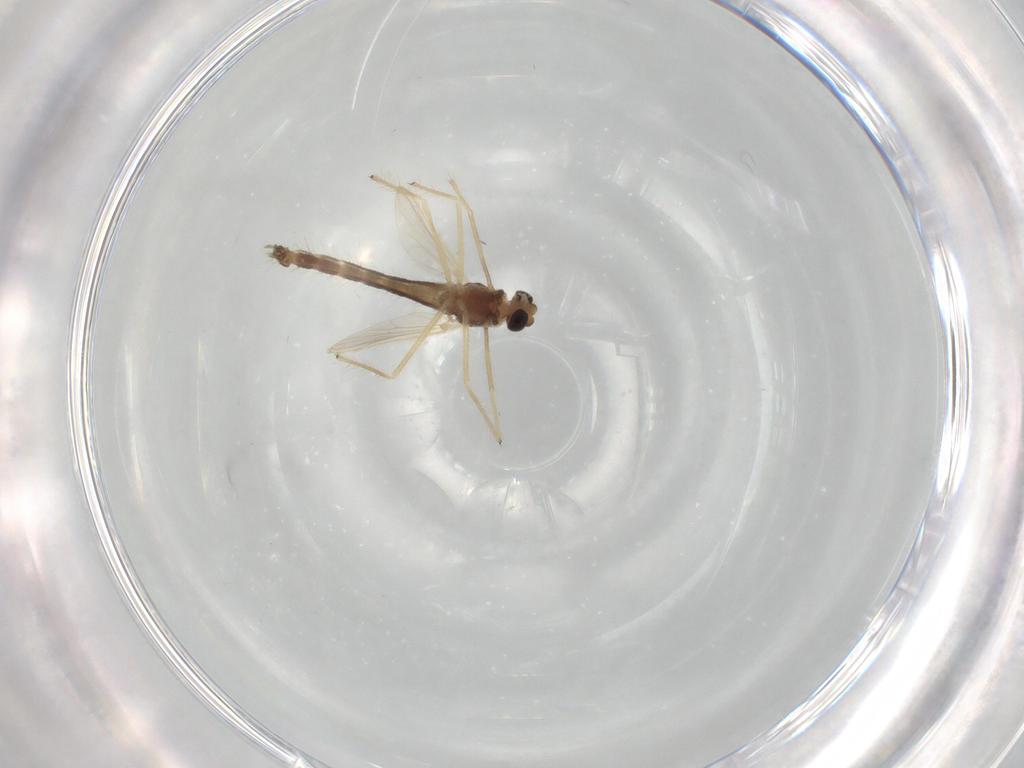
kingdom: Animalia
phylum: Arthropoda
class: Insecta
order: Diptera
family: Chironomidae
